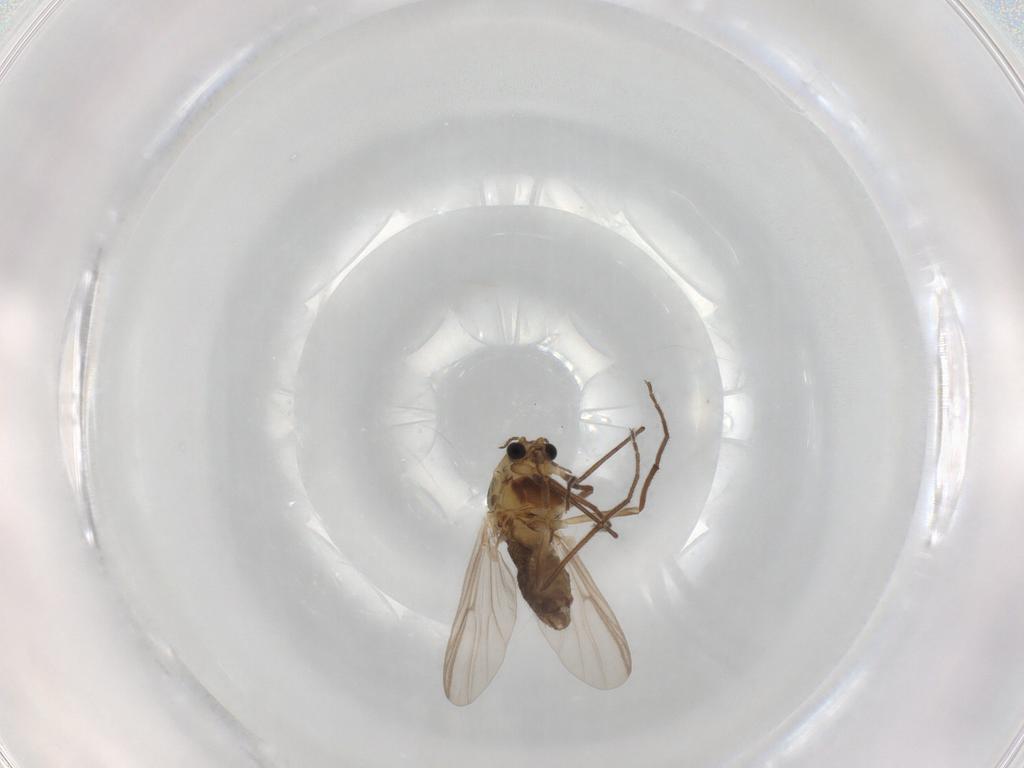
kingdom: Animalia
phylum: Arthropoda
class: Insecta
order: Diptera
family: Chironomidae
